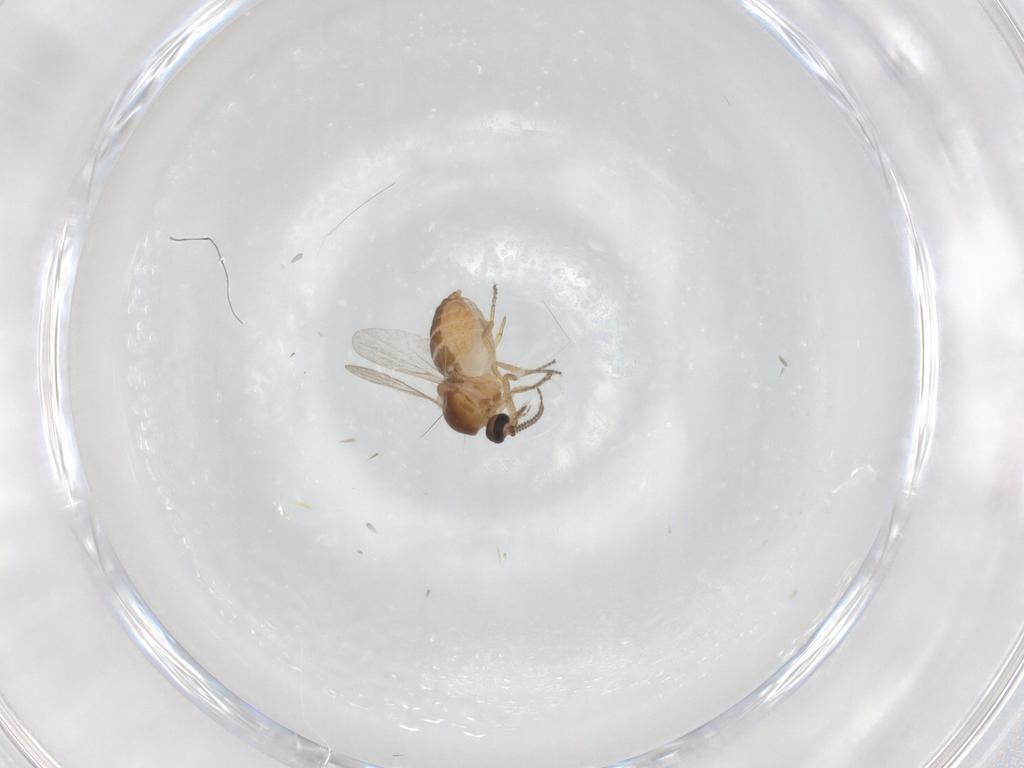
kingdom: Animalia
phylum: Arthropoda
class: Insecta
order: Diptera
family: Ceratopogonidae
